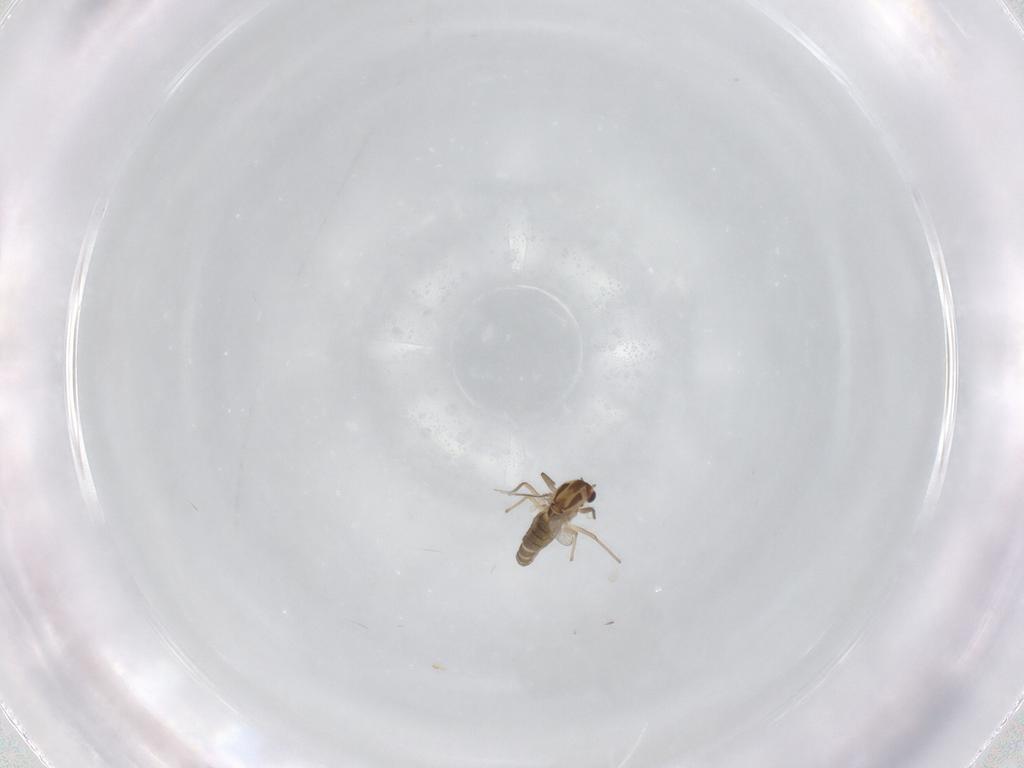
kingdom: Animalia
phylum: Arthropoda
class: Insecta
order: Diptera
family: Chironomidae
